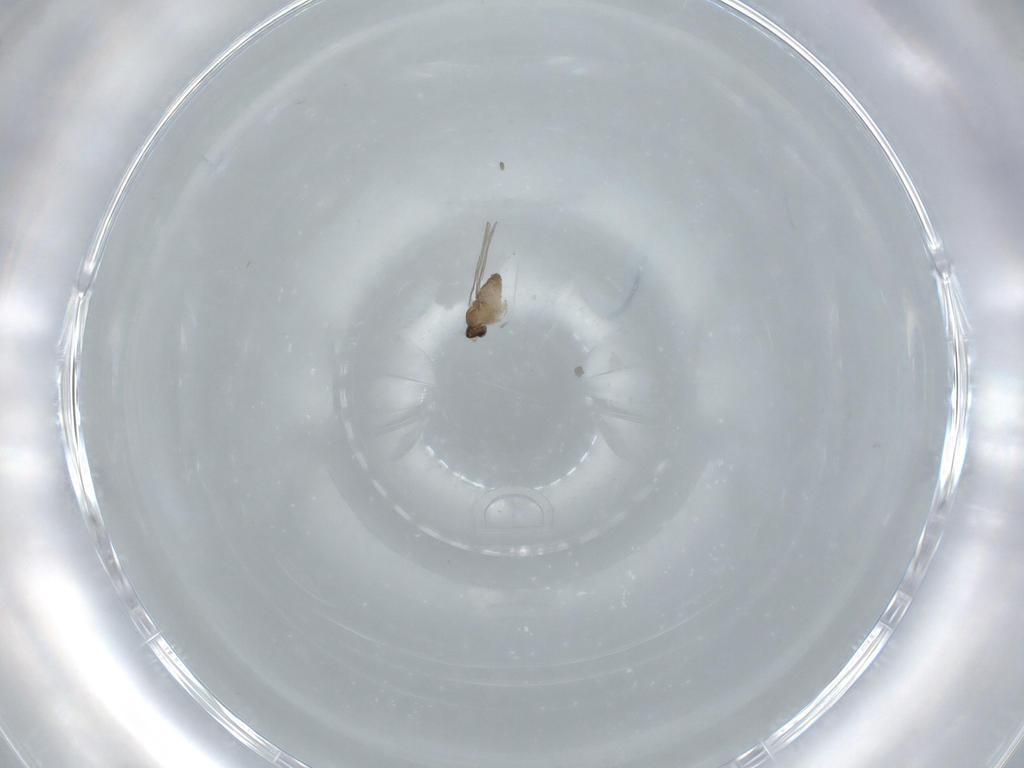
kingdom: Animalia
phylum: Arthropoda
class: Insecta
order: Diptera
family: Cecidomyiidae
